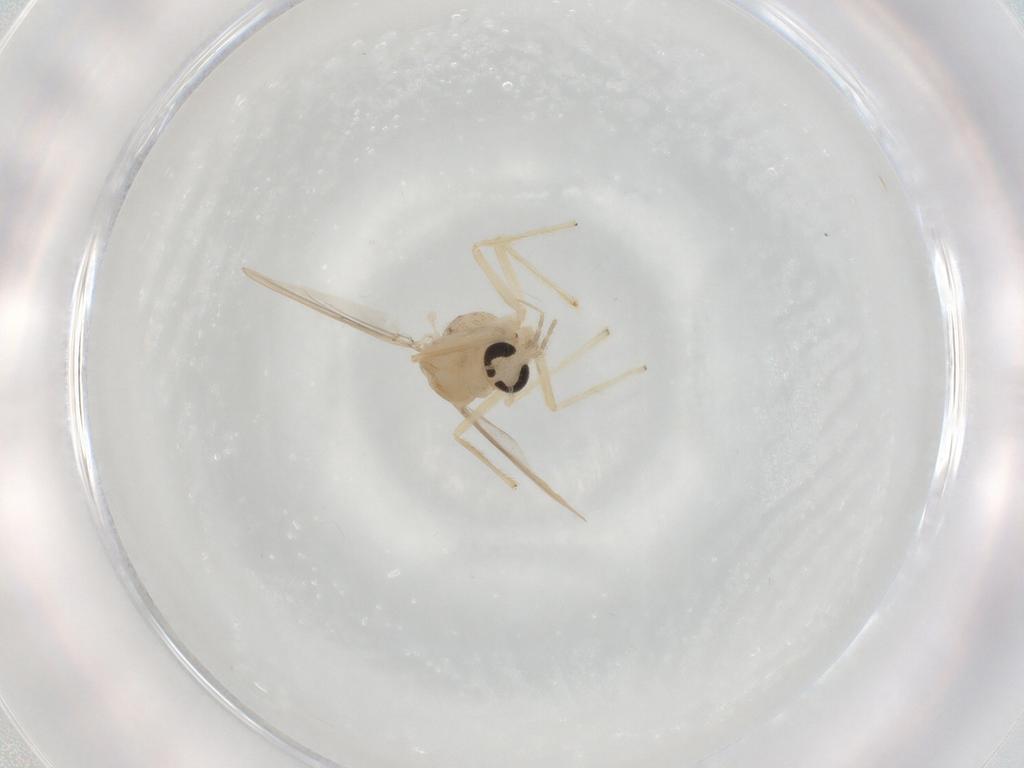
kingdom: Animalia
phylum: Arthropoda
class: Insecta
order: Diptera
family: Chironomidae
